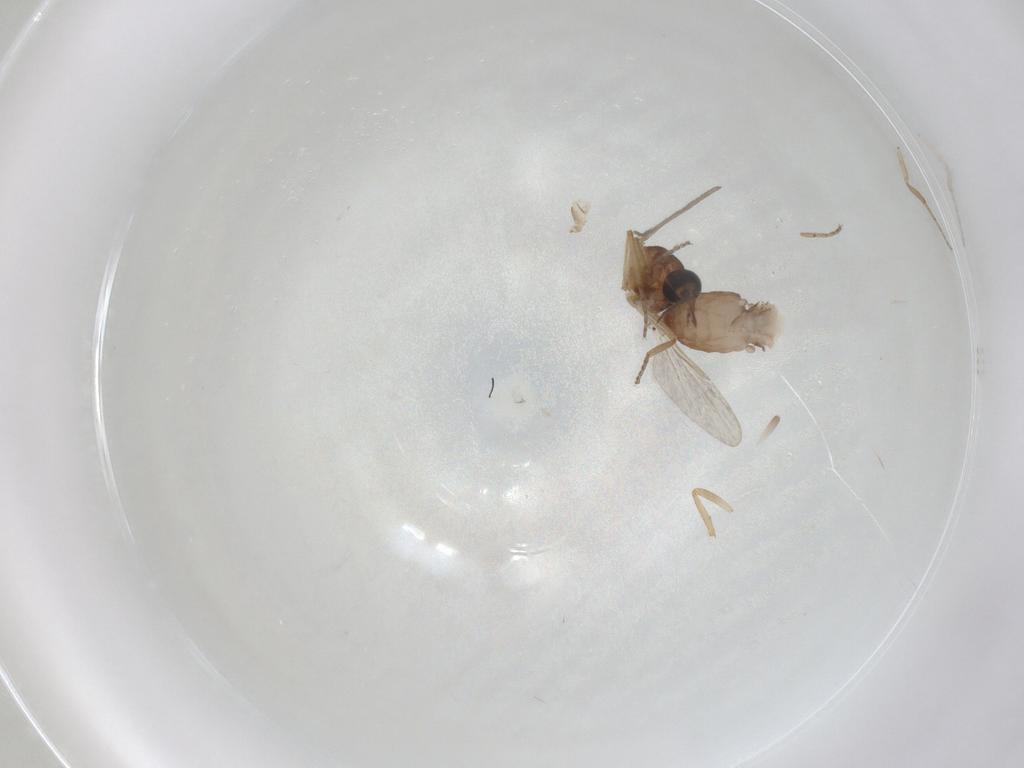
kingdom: Animalia
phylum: Arthropoda
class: Insecta
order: Diptera
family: Ceratopogonidae
